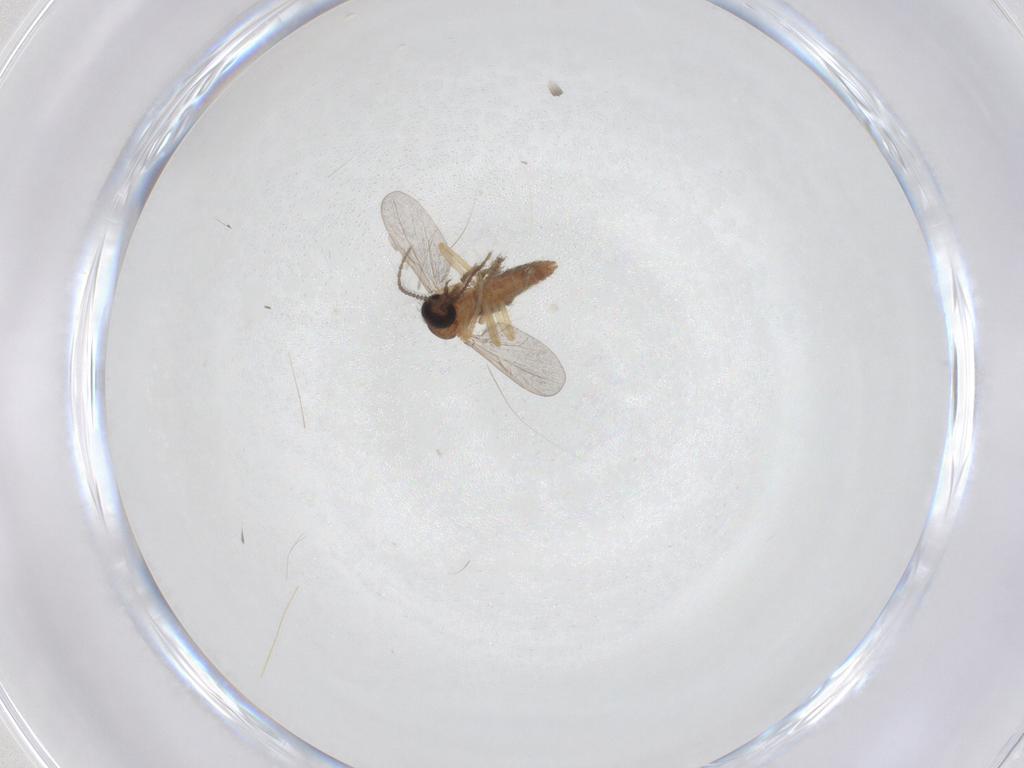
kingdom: Animalia
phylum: Arthropoda
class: Insecta
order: Diptera
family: Ceratopogonidae
